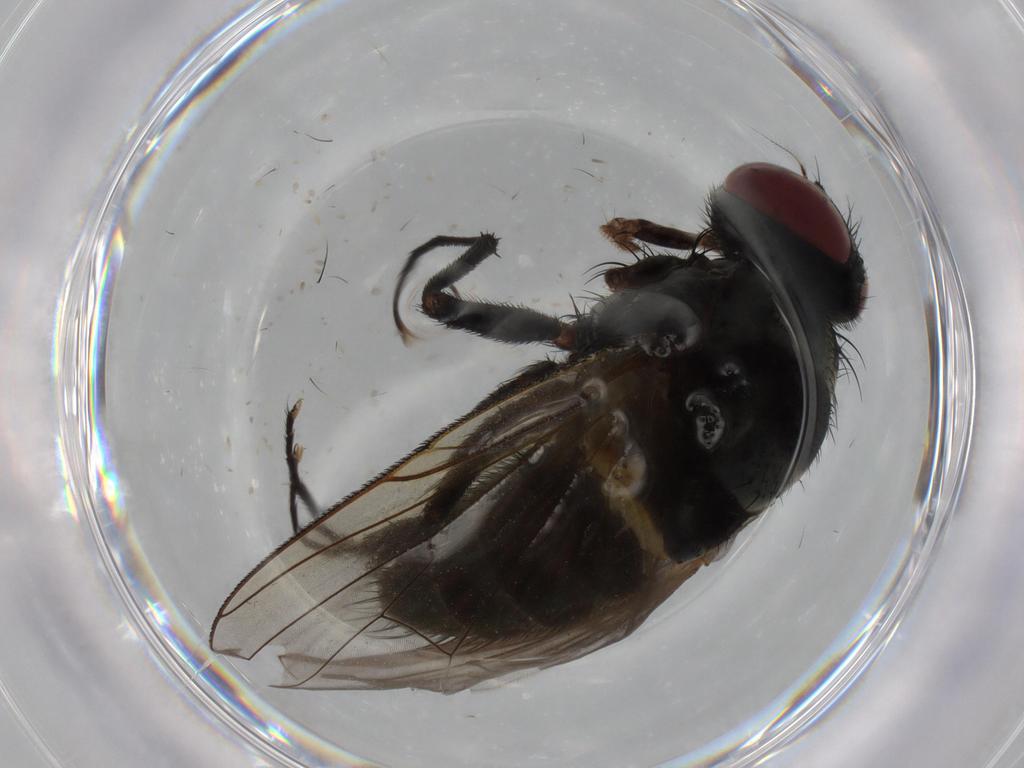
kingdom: Animalia
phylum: Arthropoda
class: Insecta
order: Diptera
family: Muscidae
